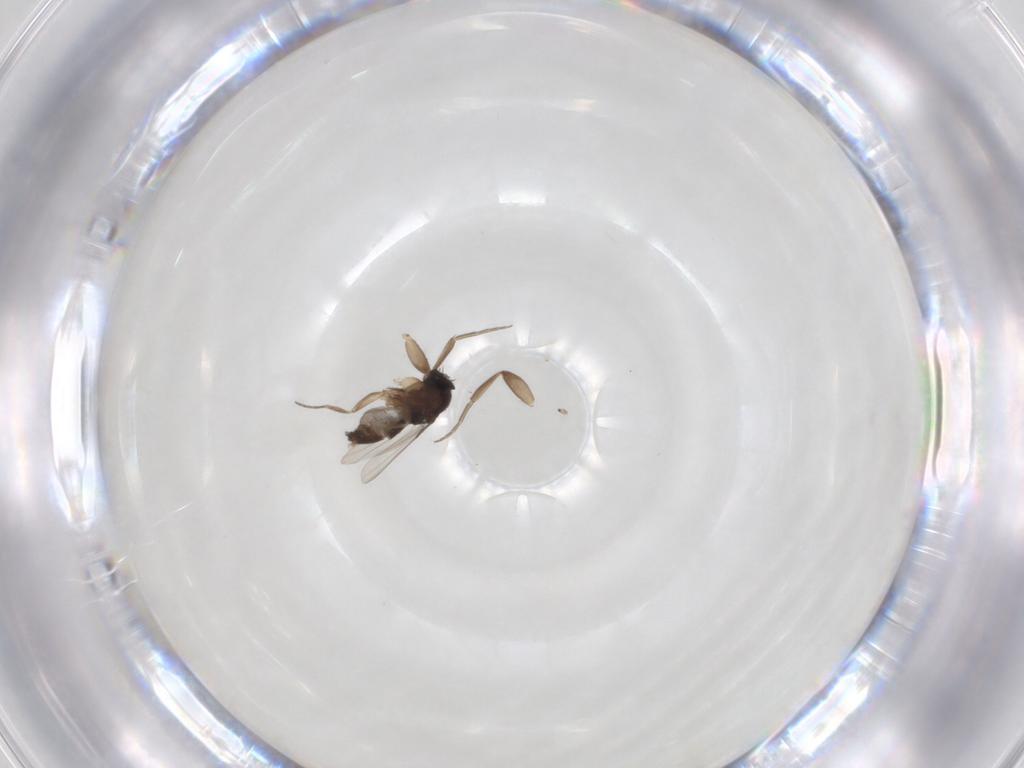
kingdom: Animalia
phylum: Arthropoda
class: Insecta
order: Diptera
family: Phoridae
